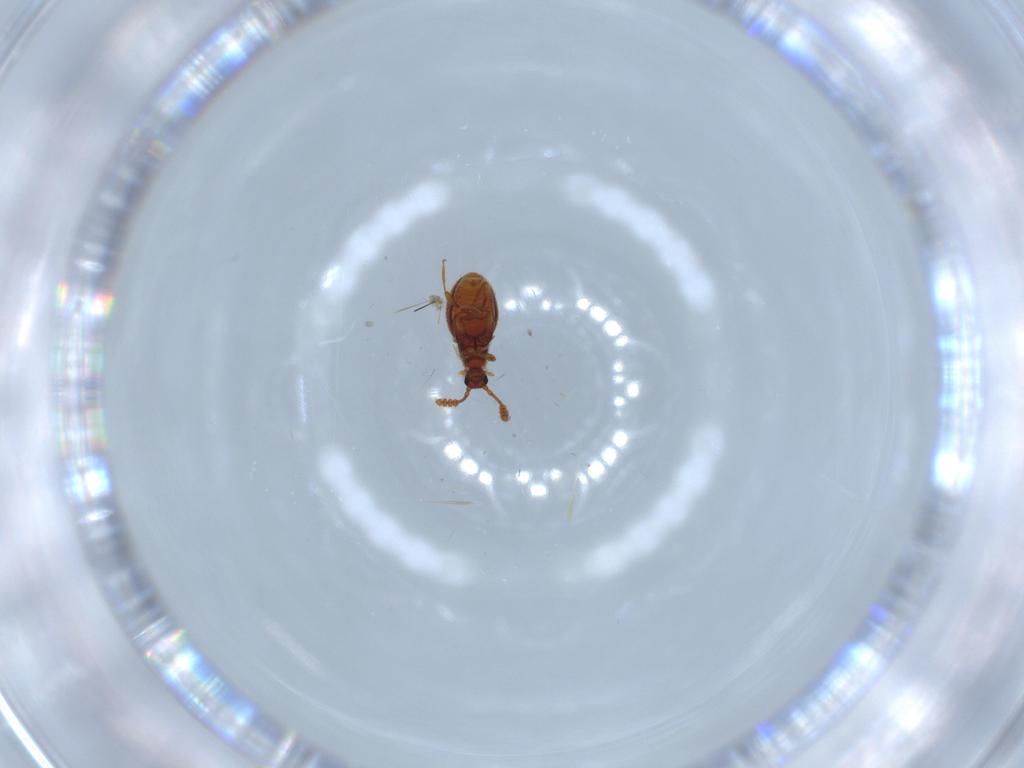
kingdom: Animalia
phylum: Arthropoda
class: Insecta
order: Coleoptera
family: Staphylinidae
